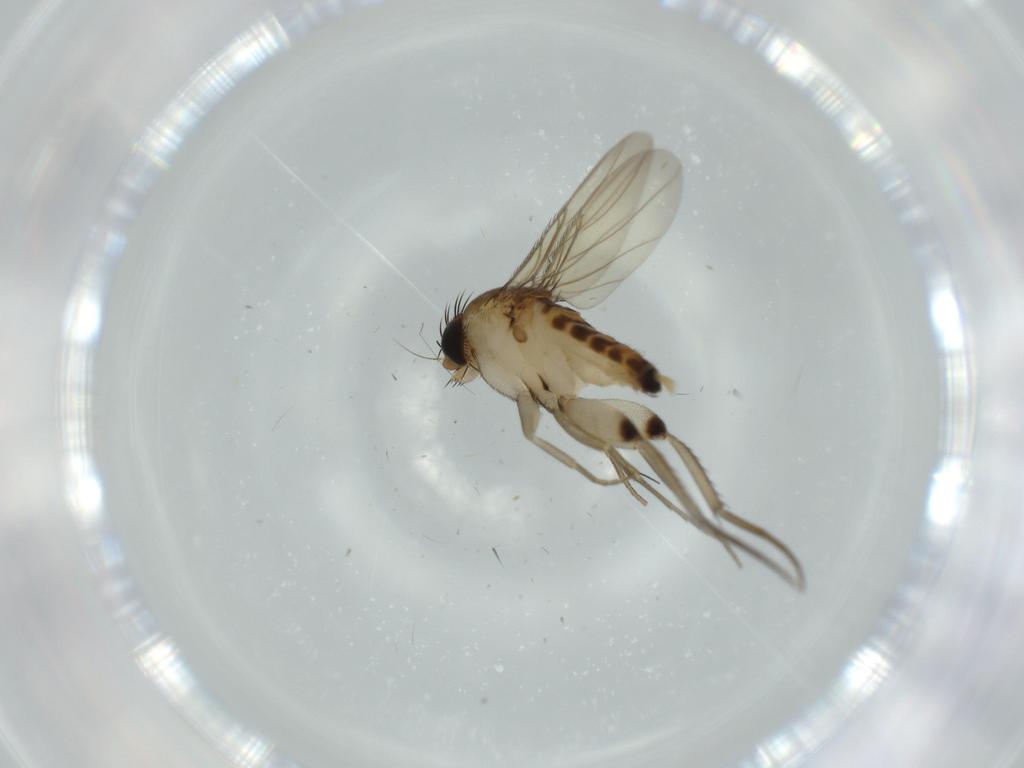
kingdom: Animalia
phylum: Arthropoda
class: Insecta
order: Diptera
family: Phoridae
